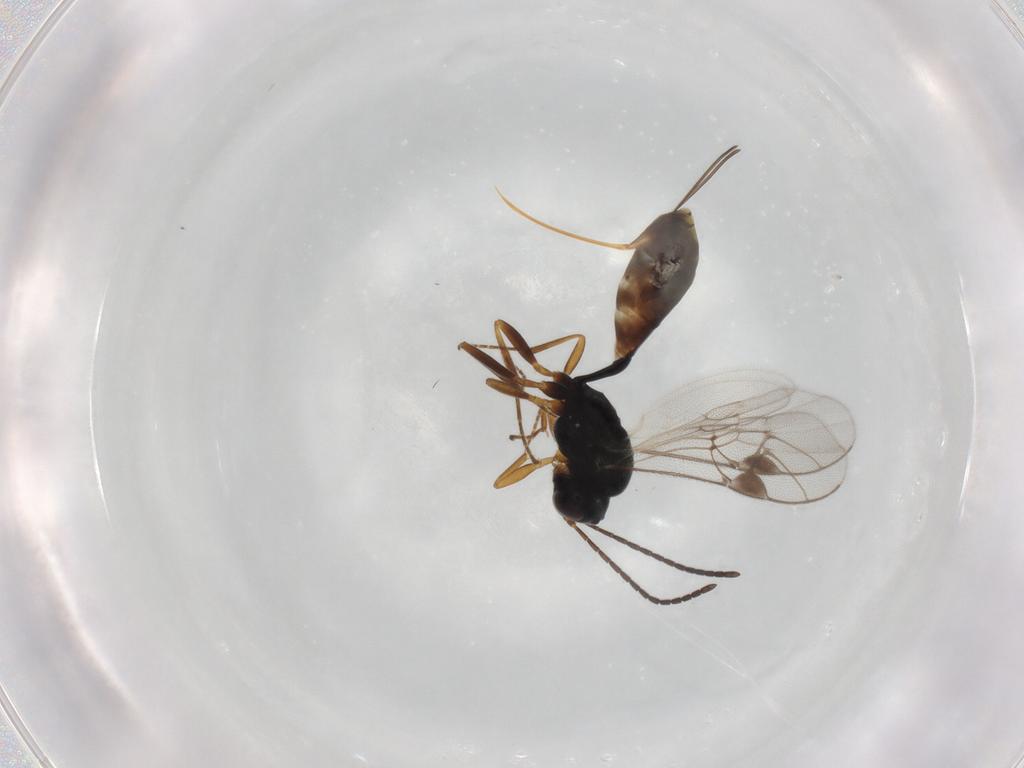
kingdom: Animalia
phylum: Arthropoda
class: Insecta
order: Hymenoptera
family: Ichneumonidae
